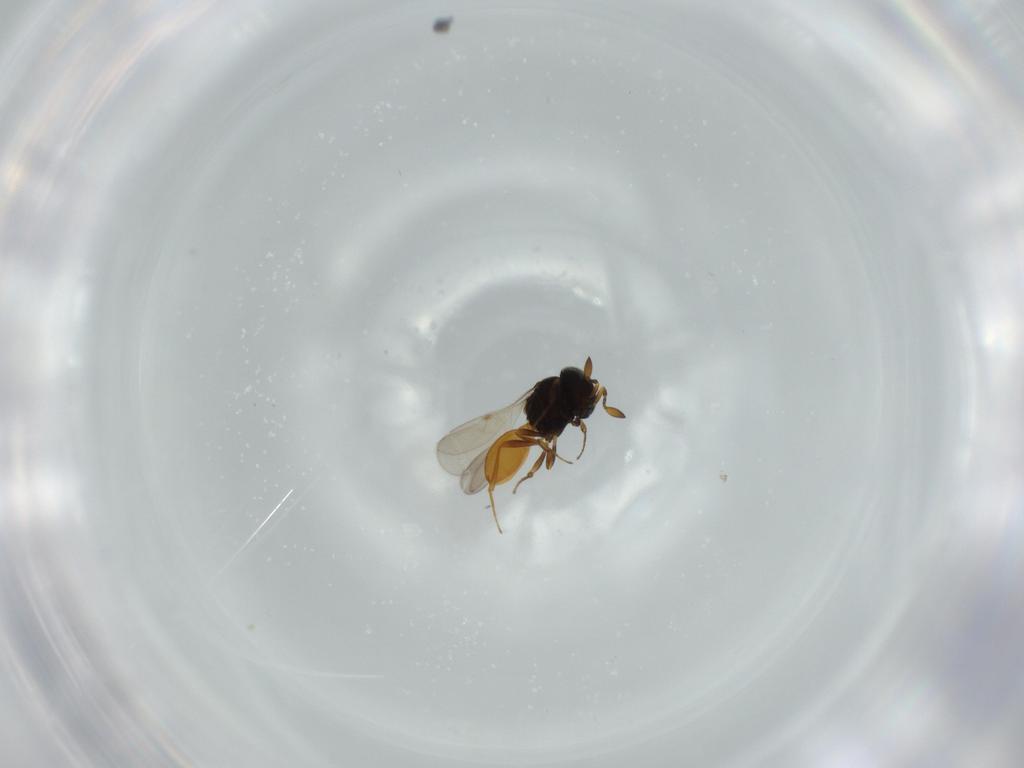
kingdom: Animalia
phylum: Arthropoda
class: Insecta
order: Hymenoptera
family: Scelionidae
